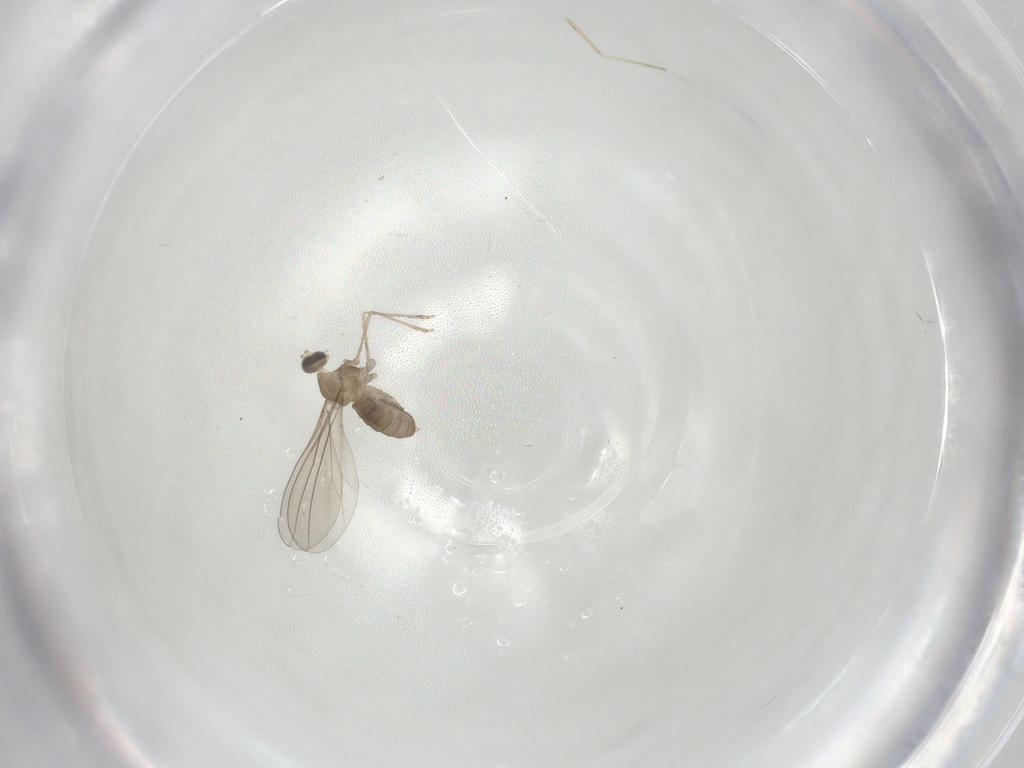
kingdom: Animalia
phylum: Arthropoda
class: Insecta
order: Diptera
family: Cecidomyiidae
